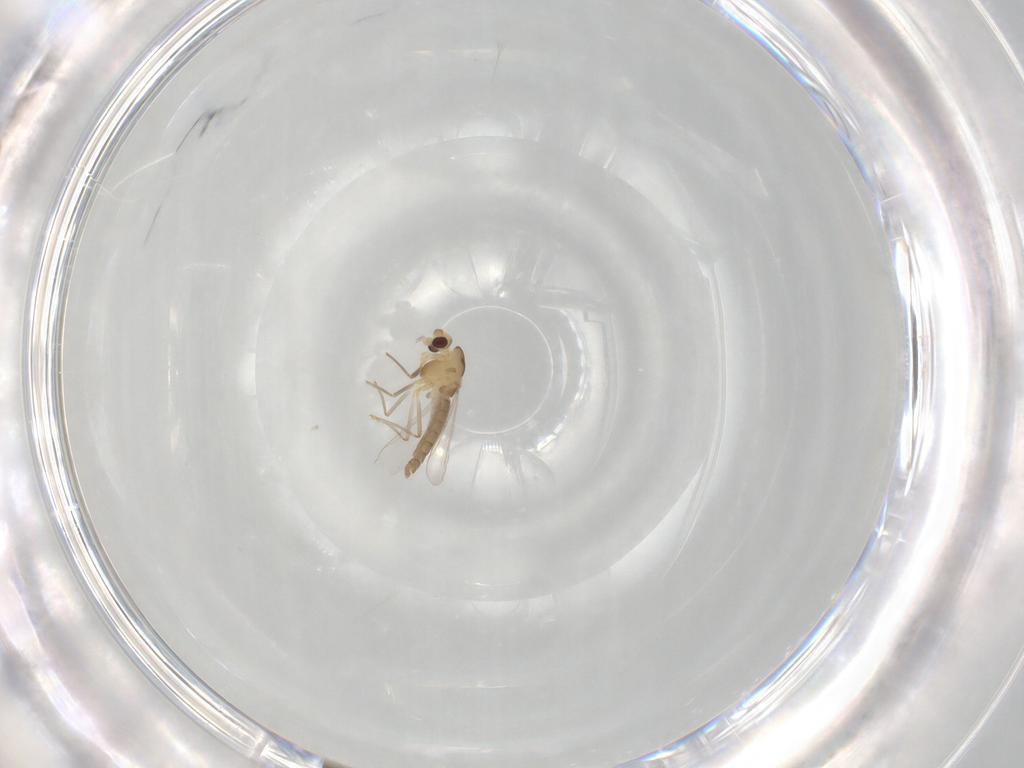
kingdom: Animalia
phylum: Arthropoda
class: Insecta
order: Diptera
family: Chironomidae
